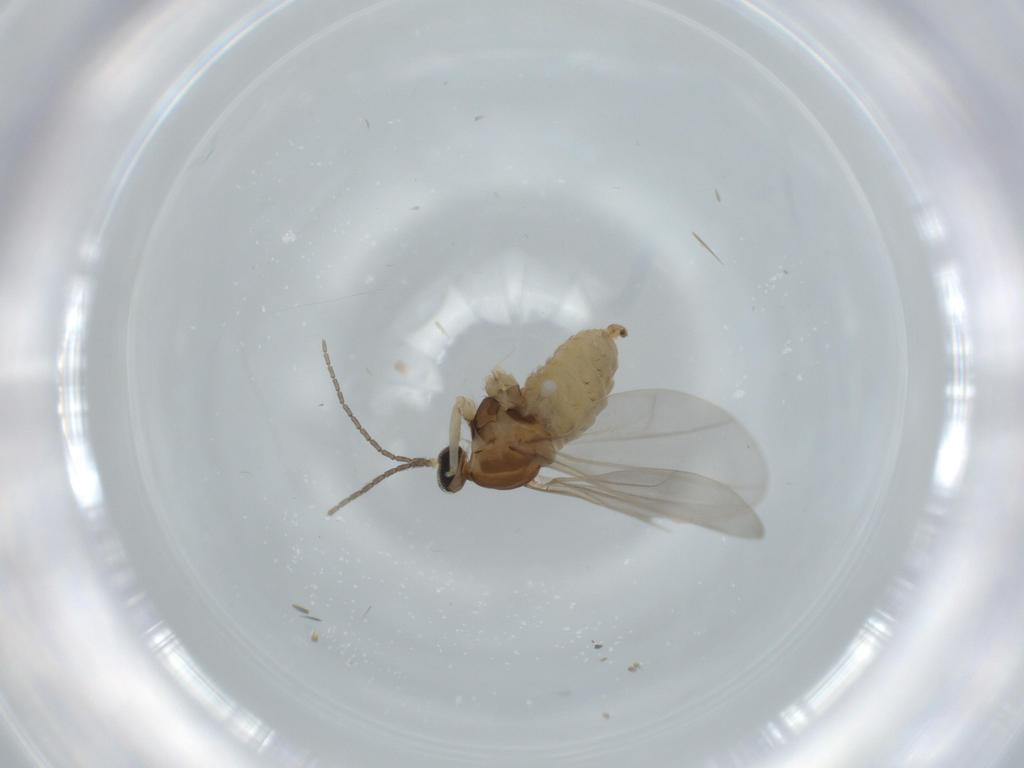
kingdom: Animalia
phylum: Arthropoda
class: Insecta
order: Diptera
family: Cecidomyiidae
